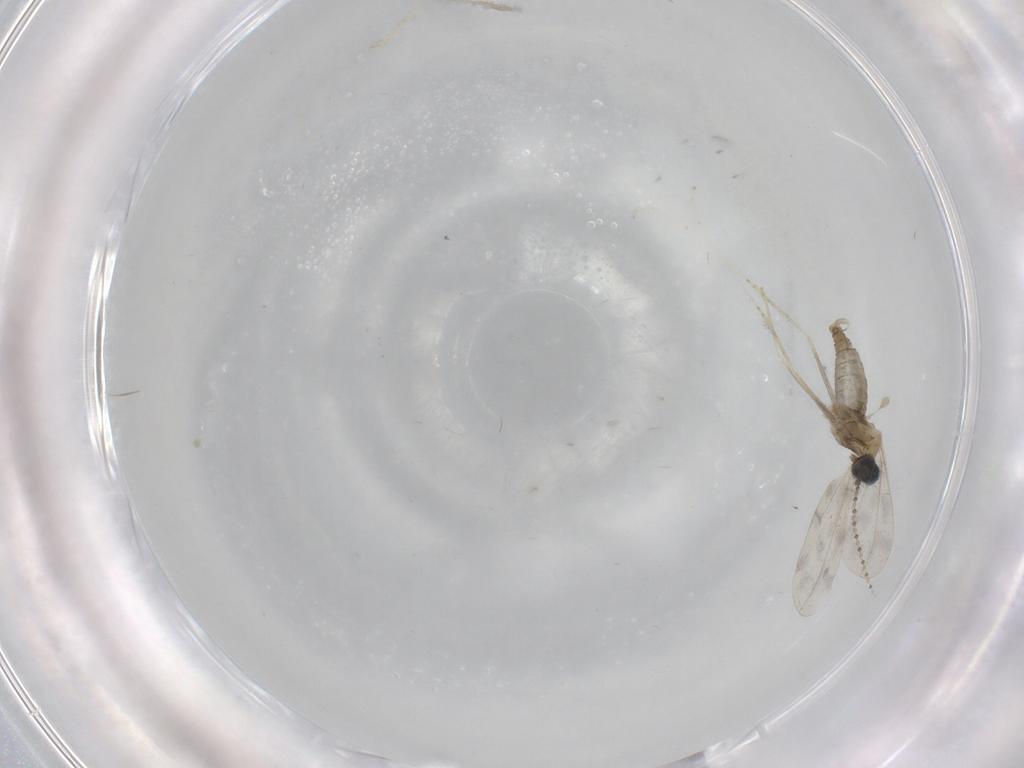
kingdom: Animalia
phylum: Arthropoda
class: Insecta
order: Diptera
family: Cecidomyiidae
